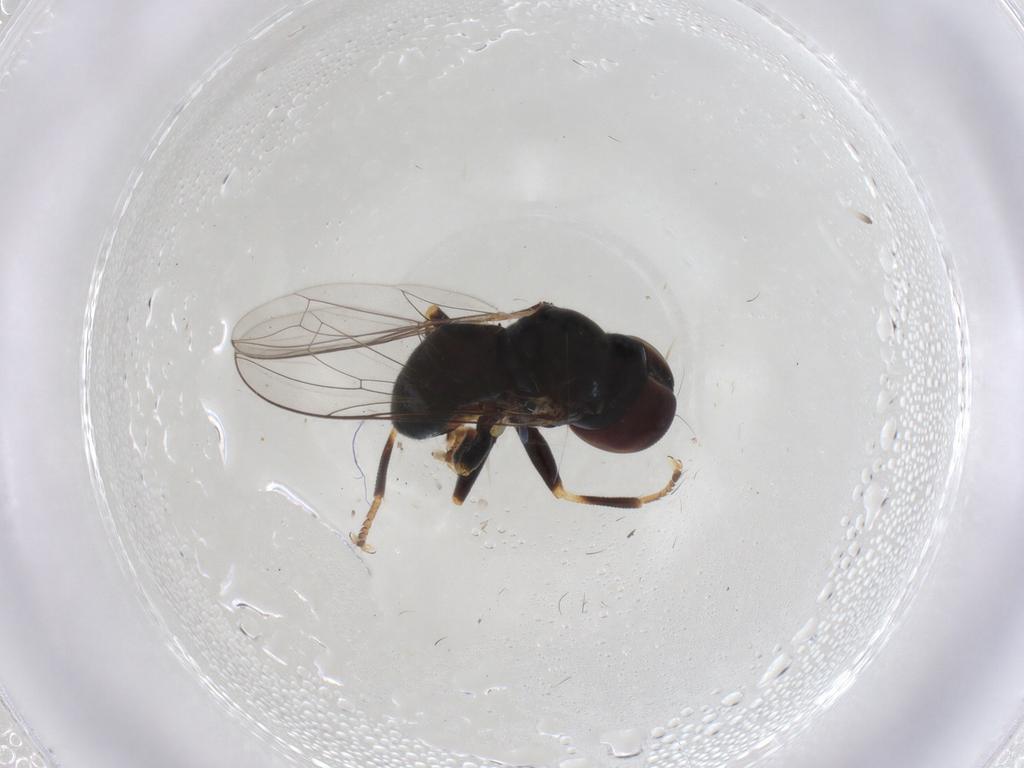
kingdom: Animalia
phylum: Arthropoda
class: Insecta
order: Diptera
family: Pipunculidae
